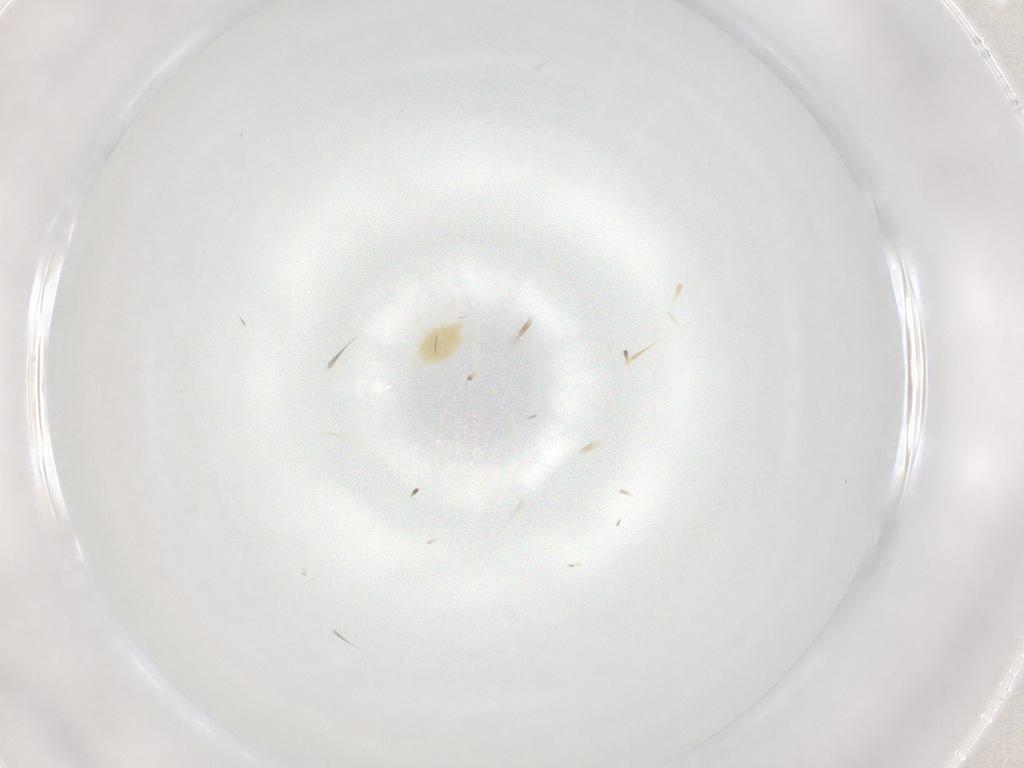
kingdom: Animalia
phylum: Arthropoda
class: Arachnida
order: Trombidiformes
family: Tetranychidae
